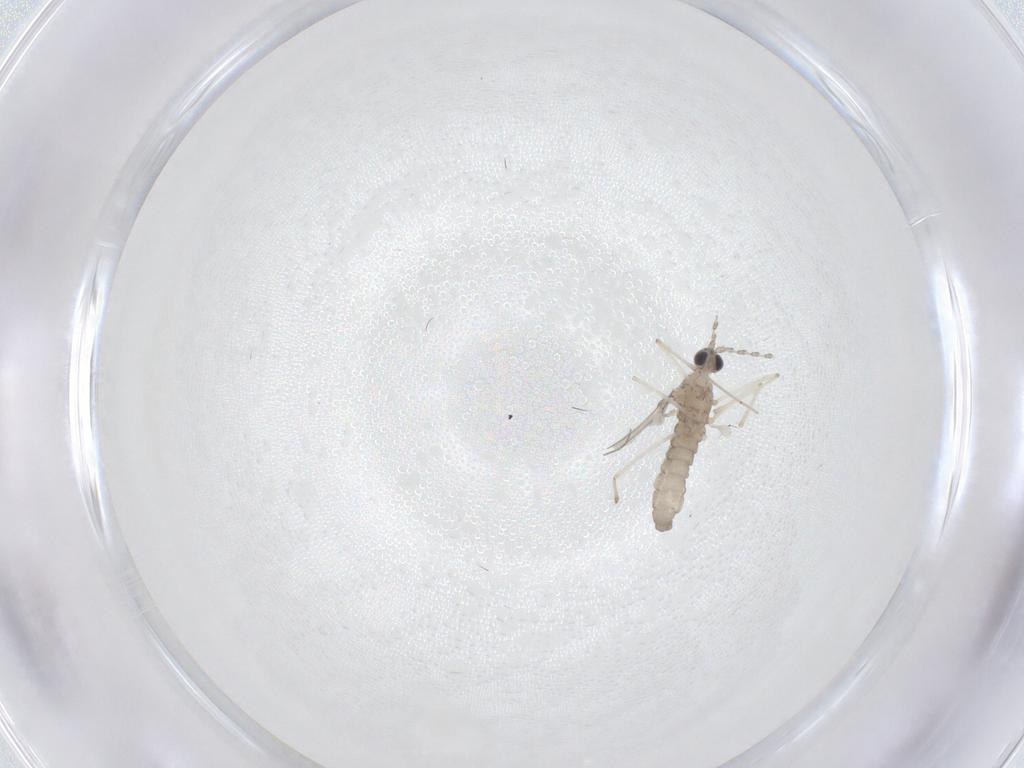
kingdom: Animalia
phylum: Arthropoda
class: Insecta
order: Diptera
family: Cecidomyiidae
